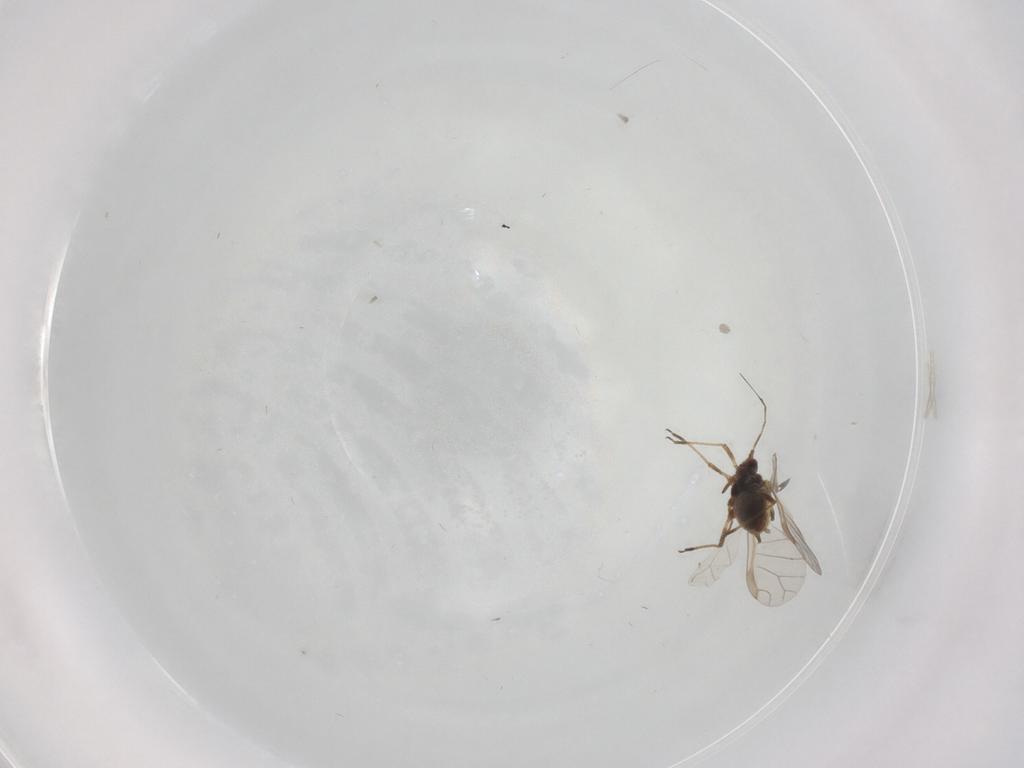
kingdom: Animalia
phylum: Arthropoda
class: Insecta
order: Hemiptera
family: Aphididae
